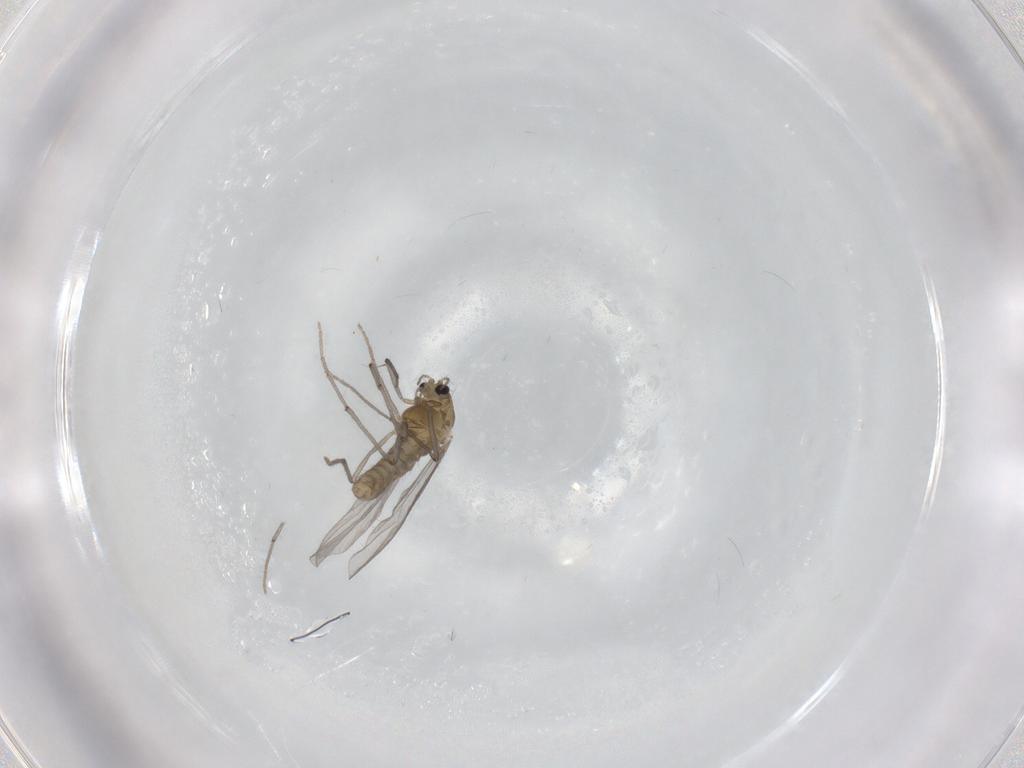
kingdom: Animalia
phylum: Arthropoda
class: Insecta
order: Diptera
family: Chironomidae
